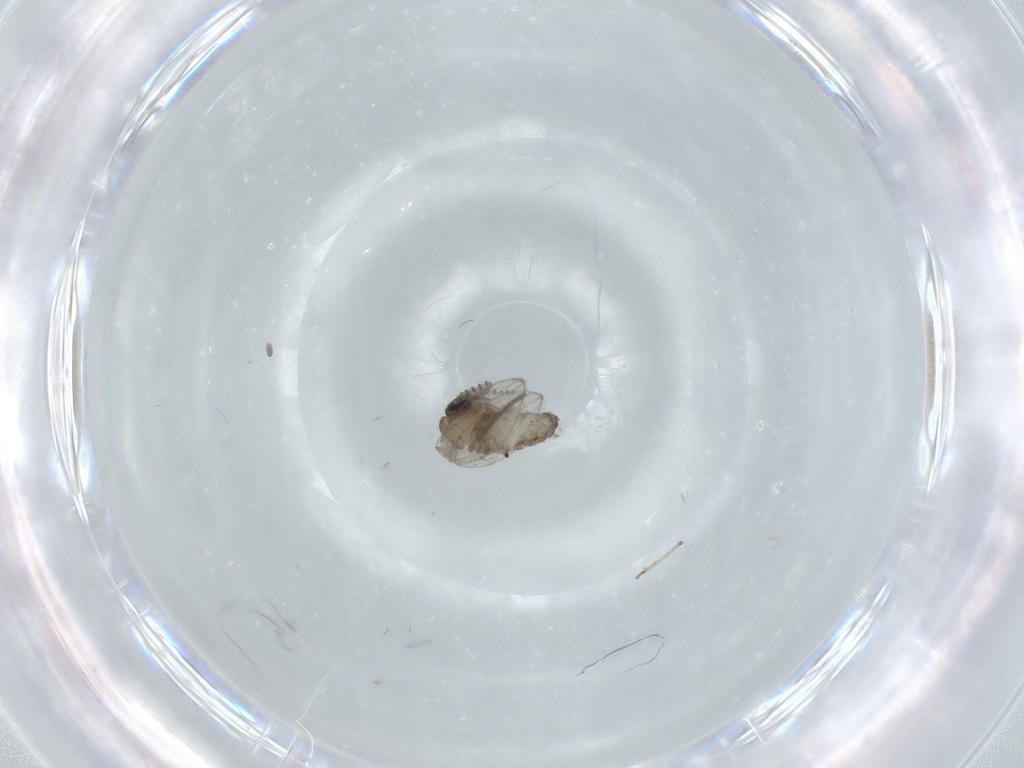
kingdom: Animalia
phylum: Arthropoda
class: Insecta
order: Diptera
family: Psychodidae
